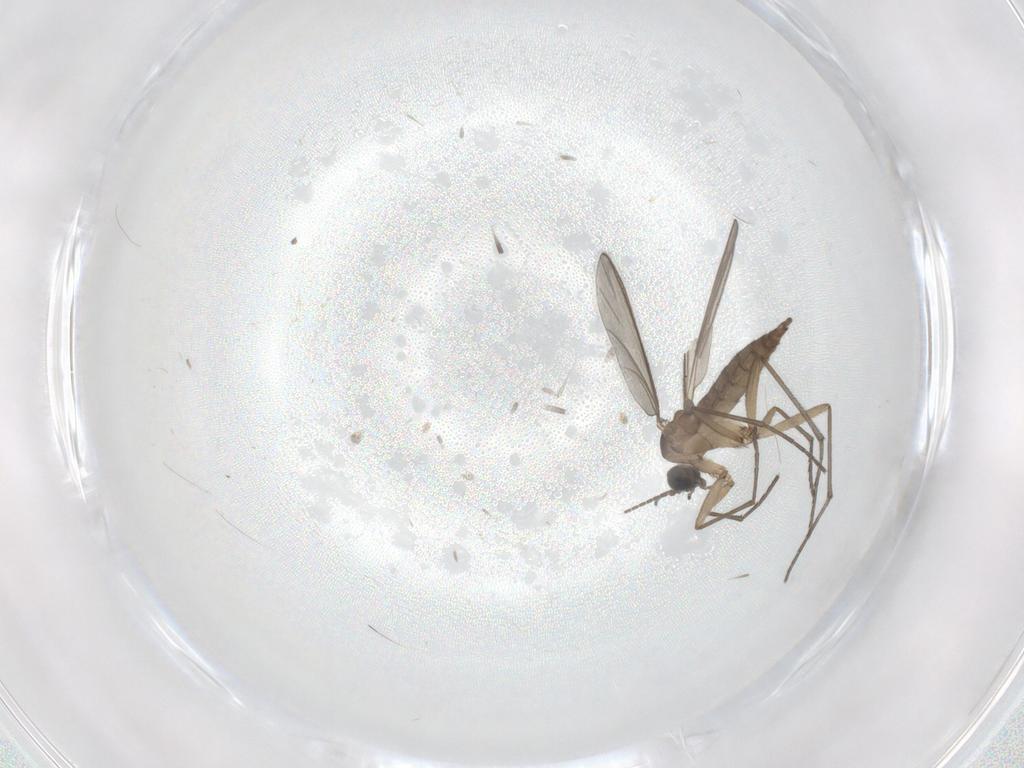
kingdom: Animalia
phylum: Arthropoda
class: Insecta
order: Diptera
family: Sciaridae
